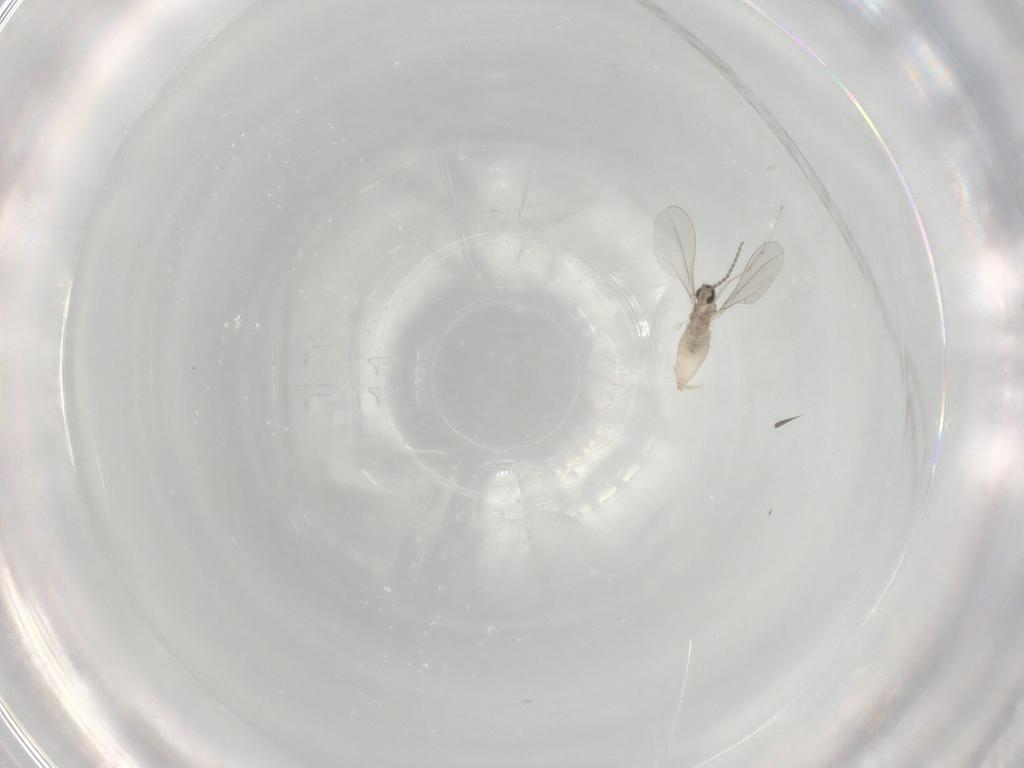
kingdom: Animalia
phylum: Arthropoda
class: Insecta
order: Diptera
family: Cecidomyiidae
